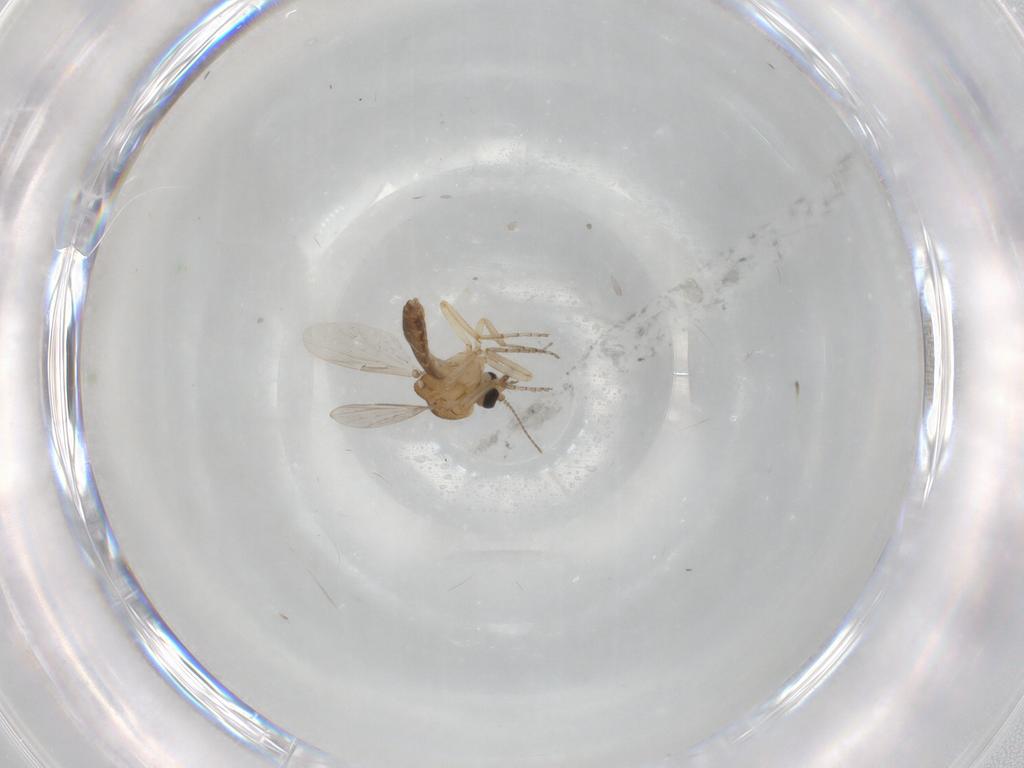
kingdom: Animalia
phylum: Arthropoda
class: Insecta
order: Diptera
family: Ceratopogonidae
